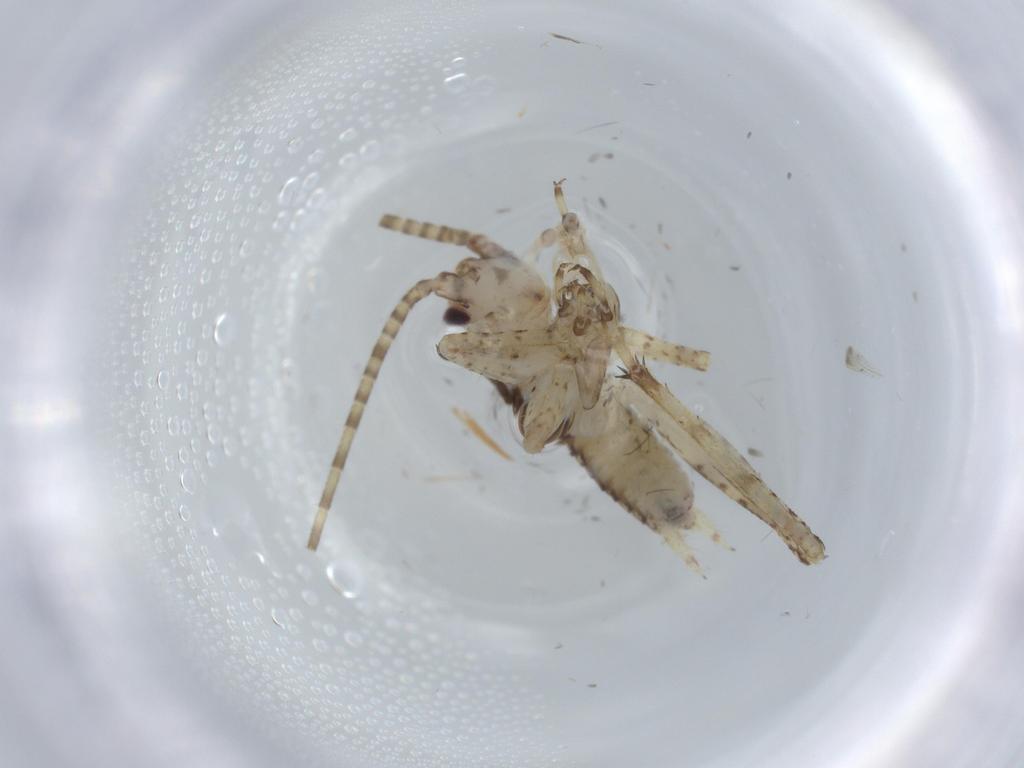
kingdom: Animalia
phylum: Arthropoda
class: Insecta
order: Orthoptera
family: Gryllidae
